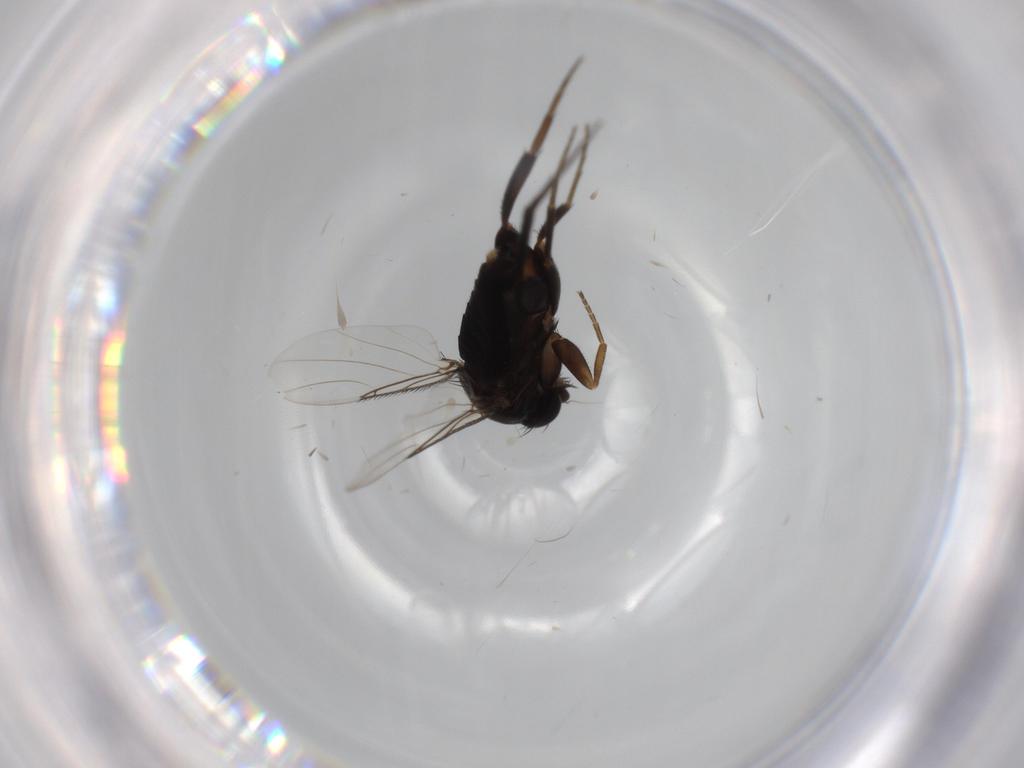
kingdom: Animalia
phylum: Arthropoda
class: Insecta
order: Diptera
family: Phoridae
